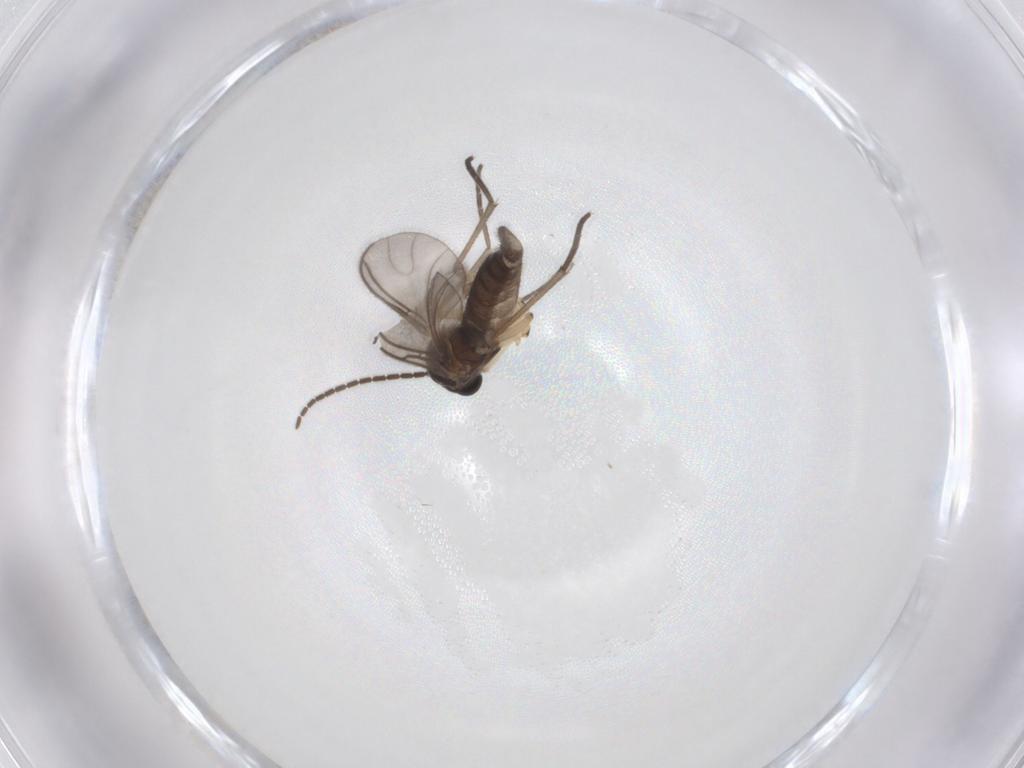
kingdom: Animalia
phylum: Arthropoda
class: Insecta
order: Diptera
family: Sciaridae
